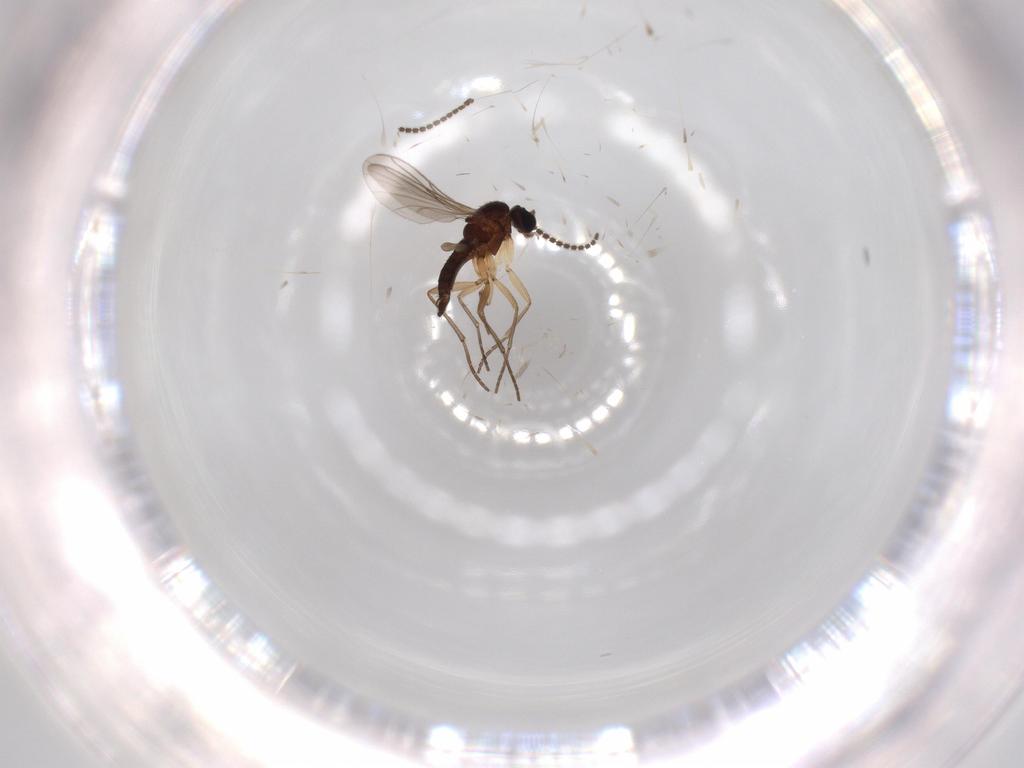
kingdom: Animalia
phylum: Arthropoda
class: Insecta
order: Diptera
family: Sciaridae
